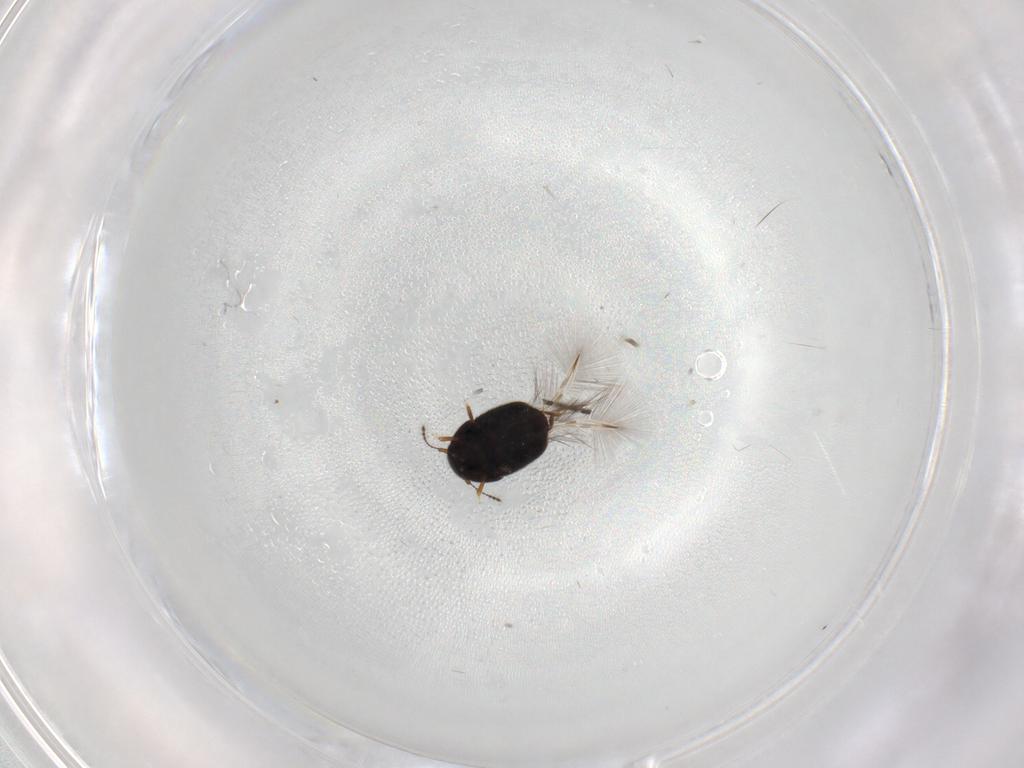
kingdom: Animalia
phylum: Arthropoda
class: Insecta
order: Coleoptera
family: Ptiliidae
